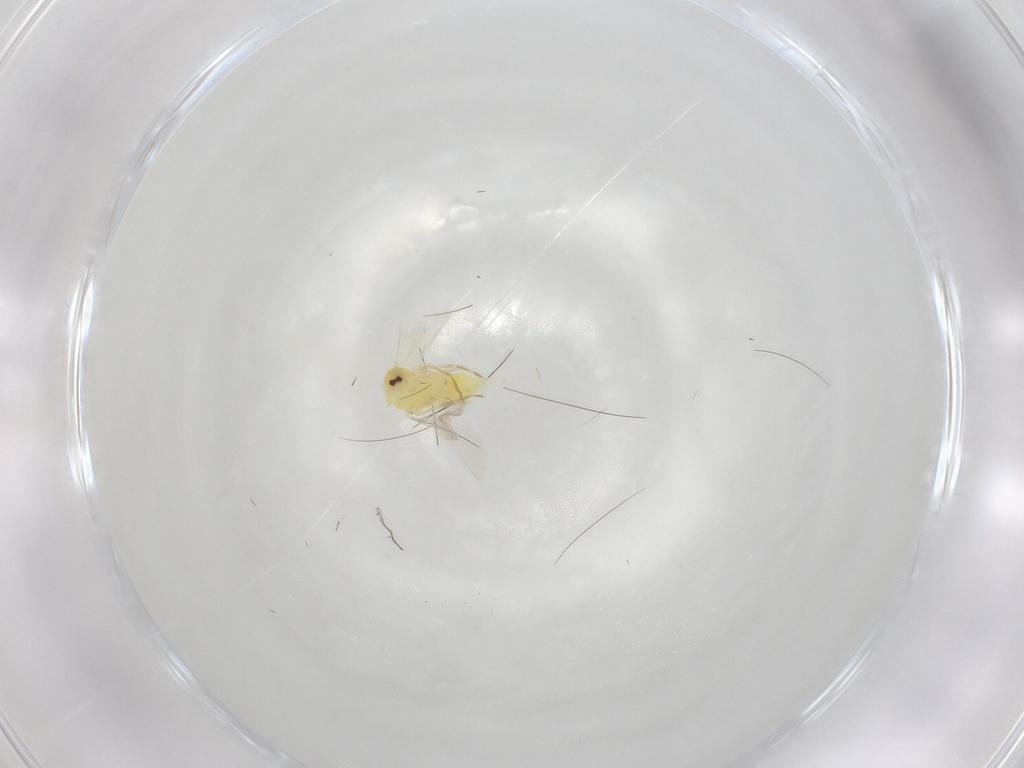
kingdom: Animalia
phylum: Arthropoda
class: Insecta
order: Hemiptera
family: Aleyrodidae
